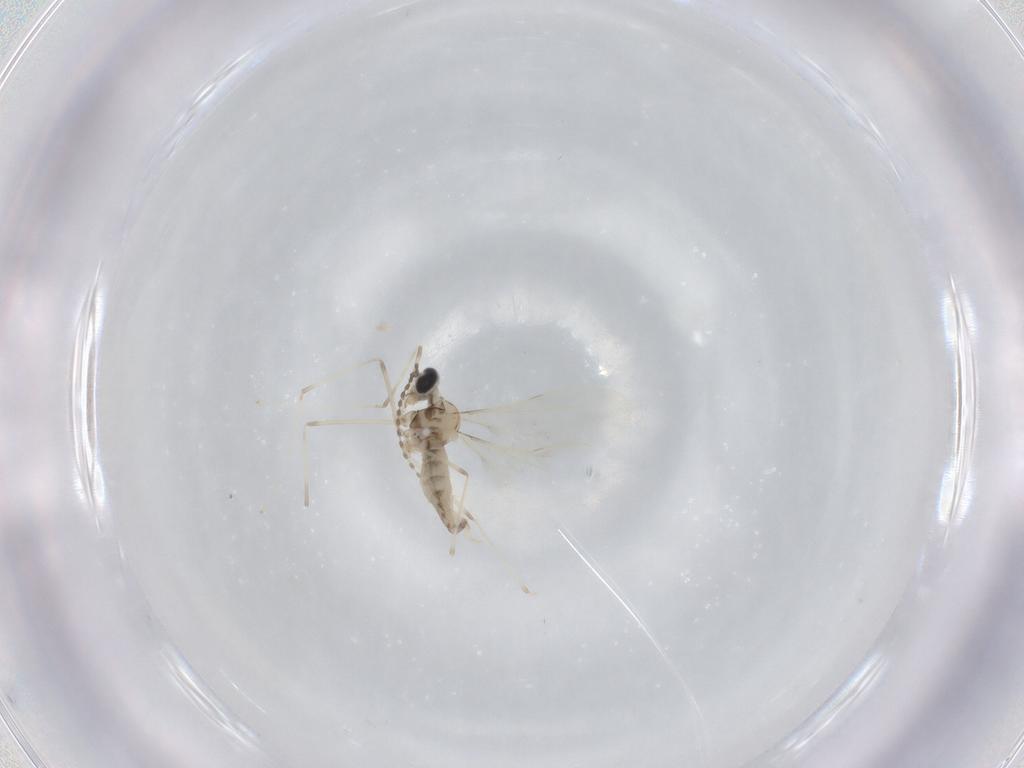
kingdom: Animalia
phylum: Arthropoda
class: Insecta
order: Diptera
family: Cecidomyiidae
